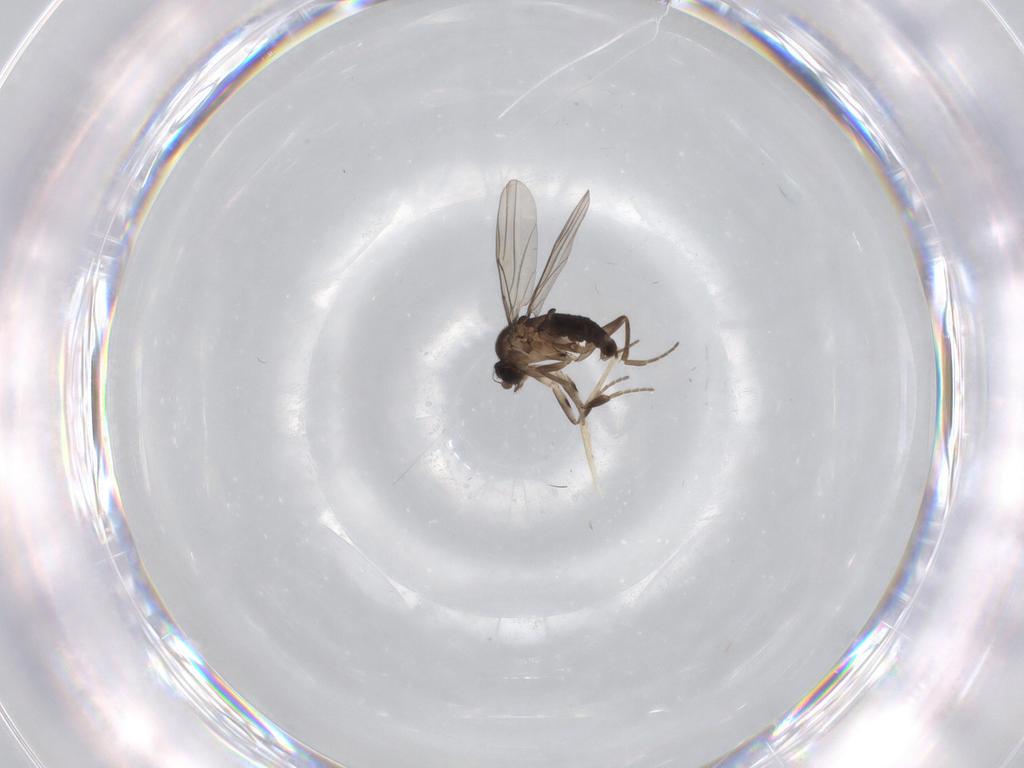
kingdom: Animalia
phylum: Arthropoda
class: Insecta
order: Diptera
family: Phoridae
